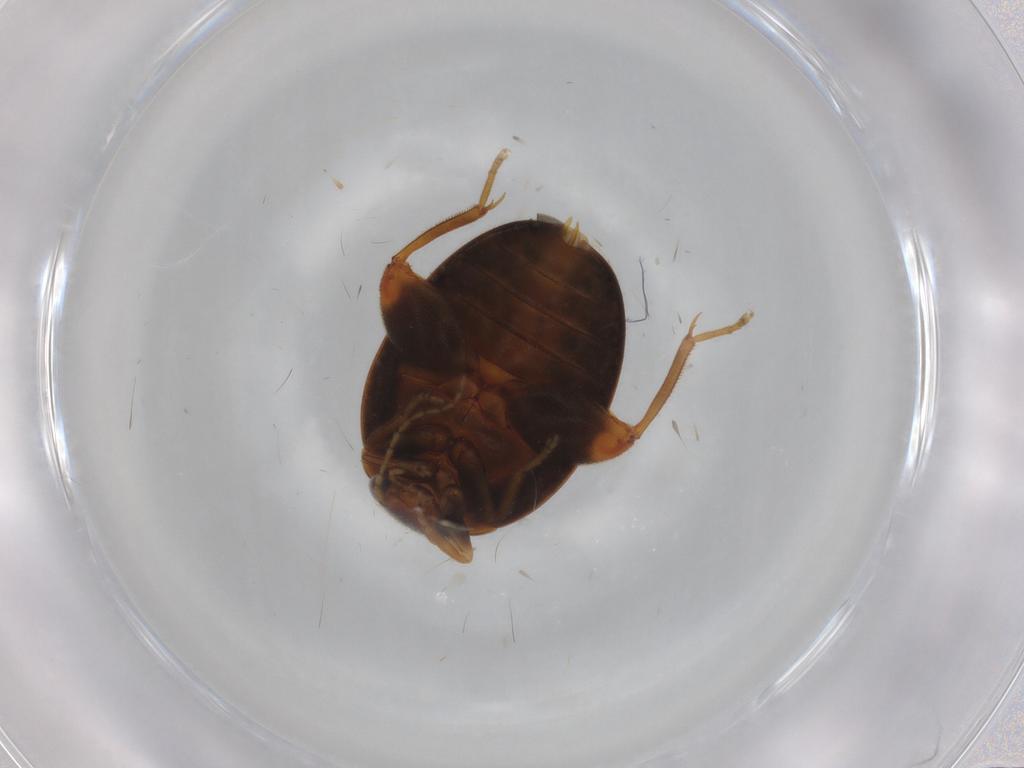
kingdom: Animalia
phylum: Arthropoda
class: Insecta
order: Coleoptera
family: Scirtidae
